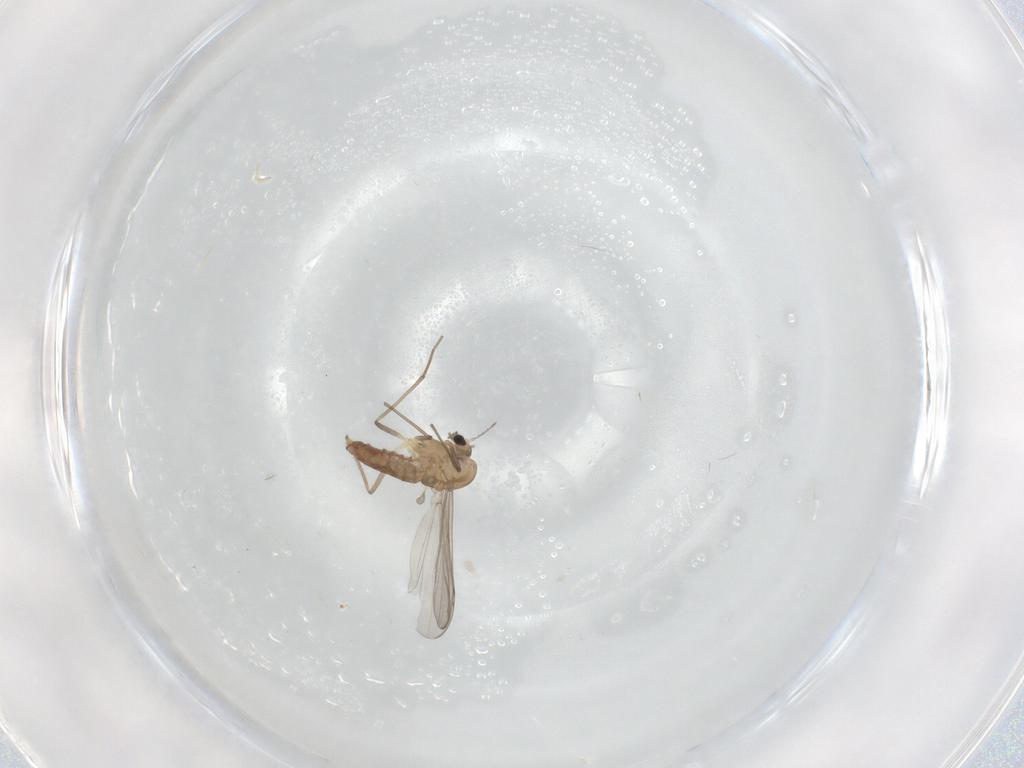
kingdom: Animalia
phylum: Arthropoda
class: Insecta
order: Diptera
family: Chironomidae
